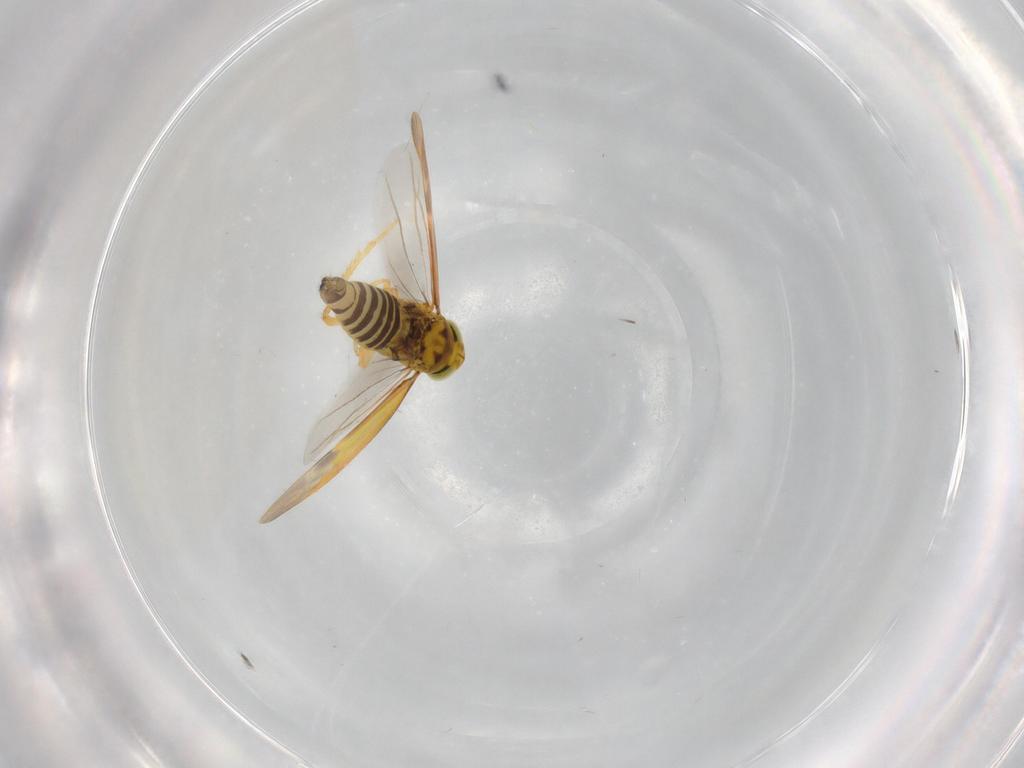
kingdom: Animalia
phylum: Arthropoda
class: Insecta
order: Hemiptera
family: Cicadellidae
